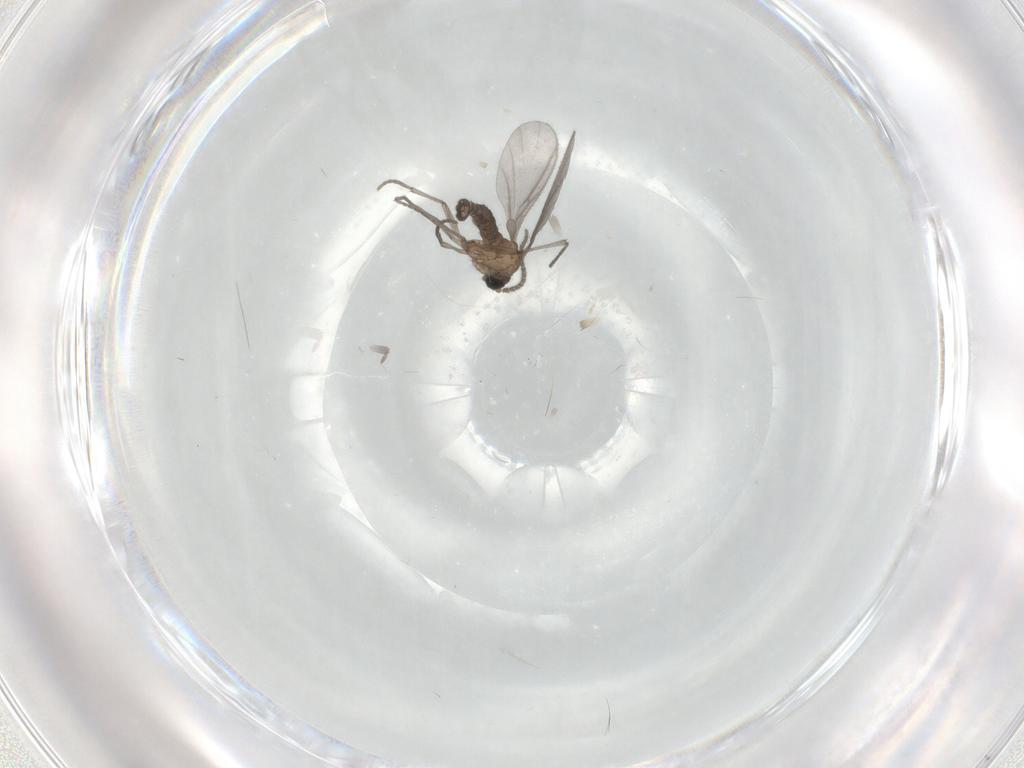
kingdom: Animalia
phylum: Arthropoda
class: Insecta
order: Diptera
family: Sciaridae
